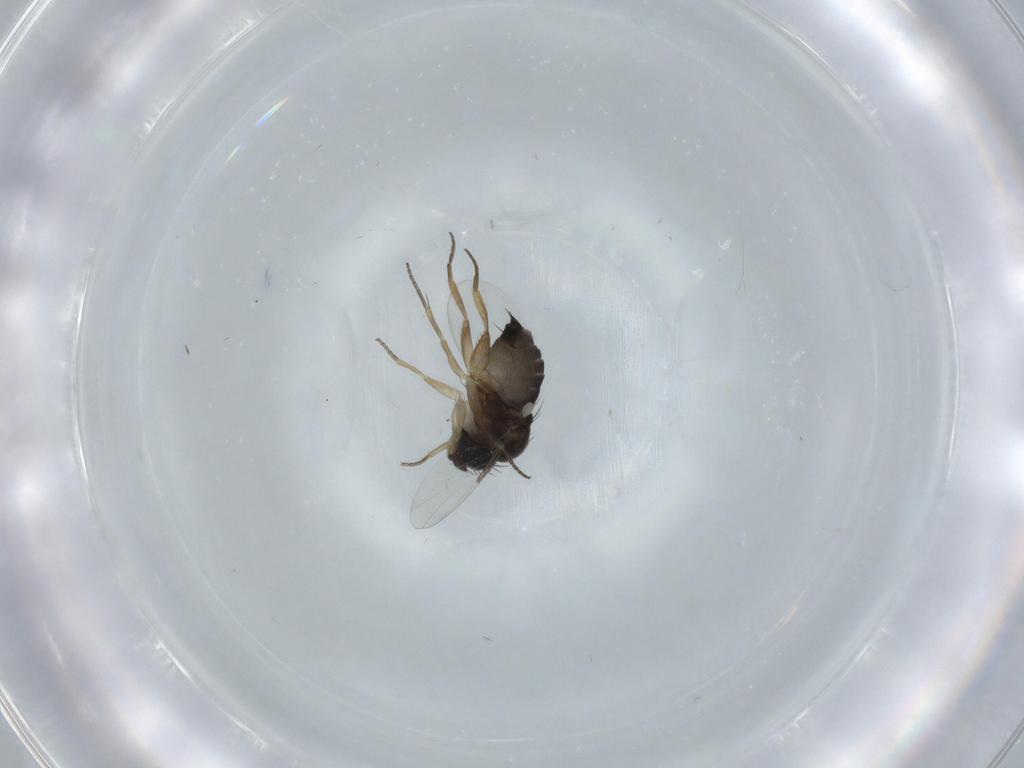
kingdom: Animalia
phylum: Arthropoda
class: Insecta
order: Diptera
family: Phoridae
